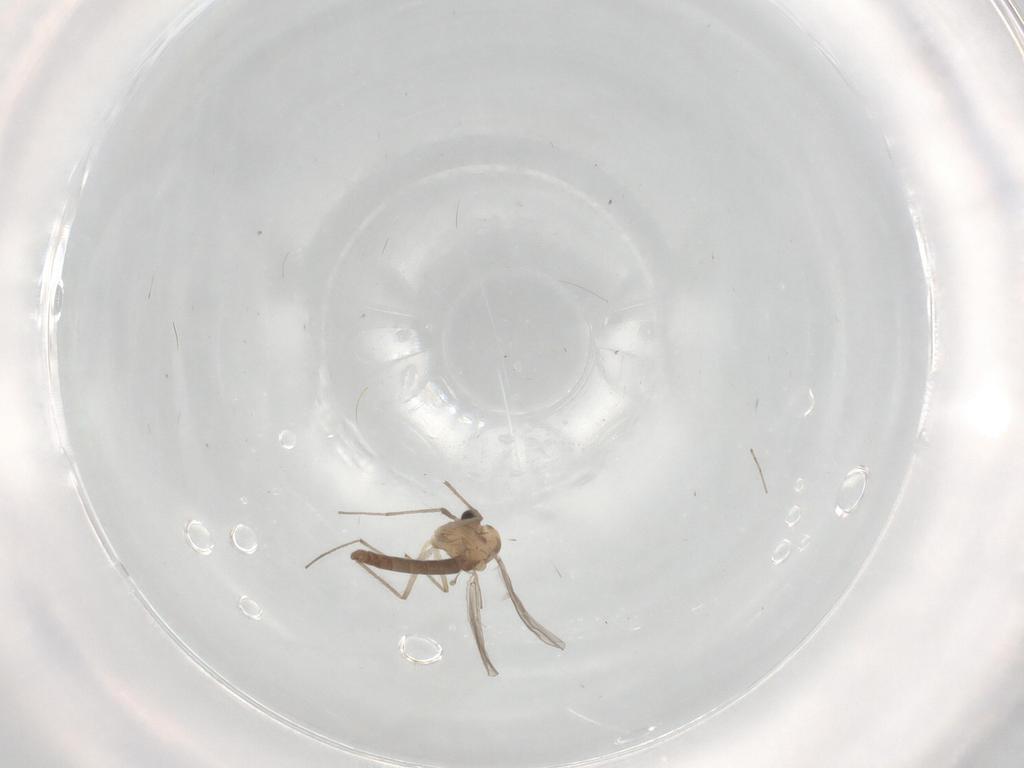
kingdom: Animalia
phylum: Arthropoda
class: Insecta
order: Diptera
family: Chironomidae
